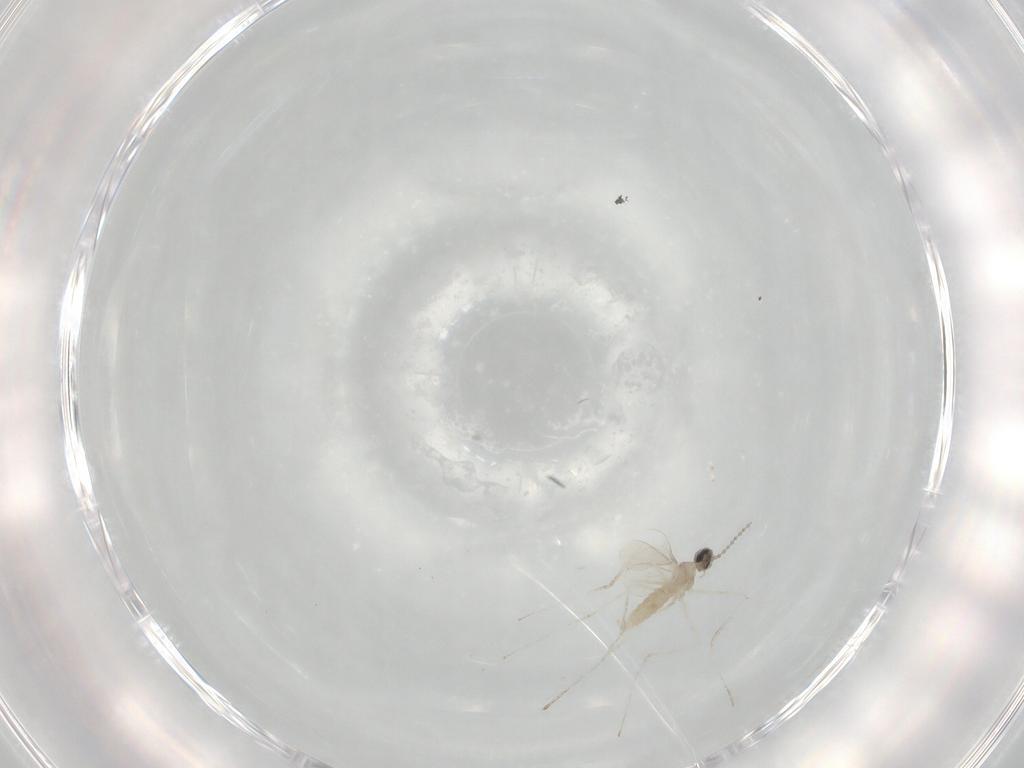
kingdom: Animalia
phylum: Arthropoda
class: Insecta
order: Diptera
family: Cecidomyiidae
